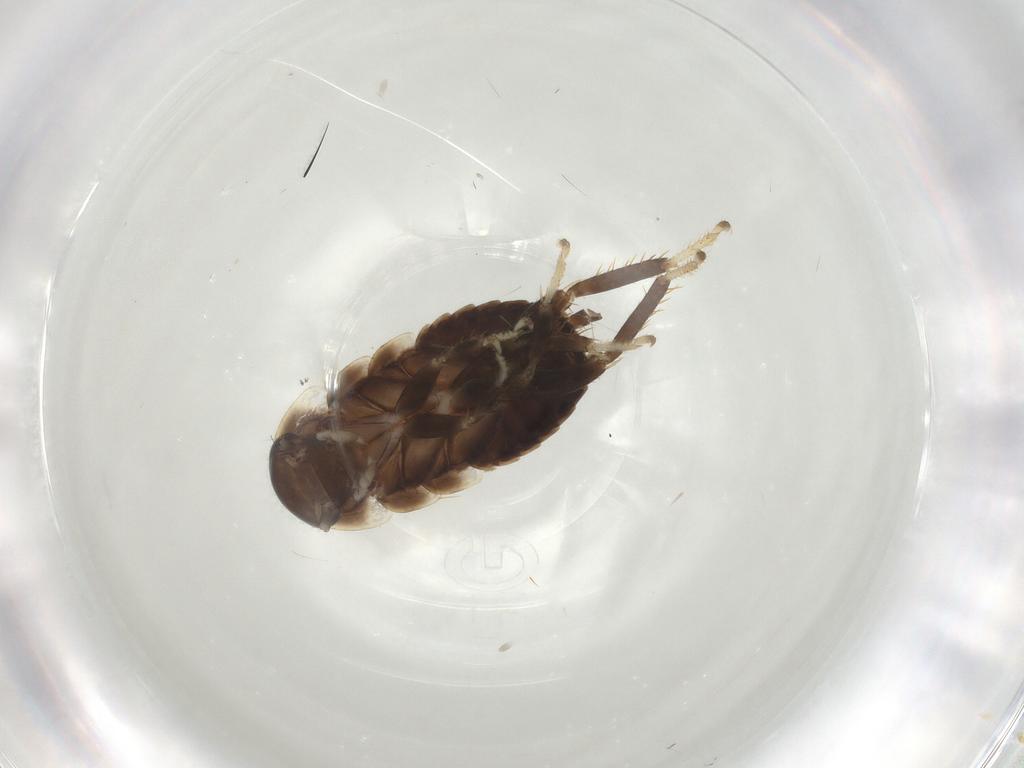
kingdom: Animalia
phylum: Arthropoda
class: Insecta
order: Blattodea
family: Blaberidae
